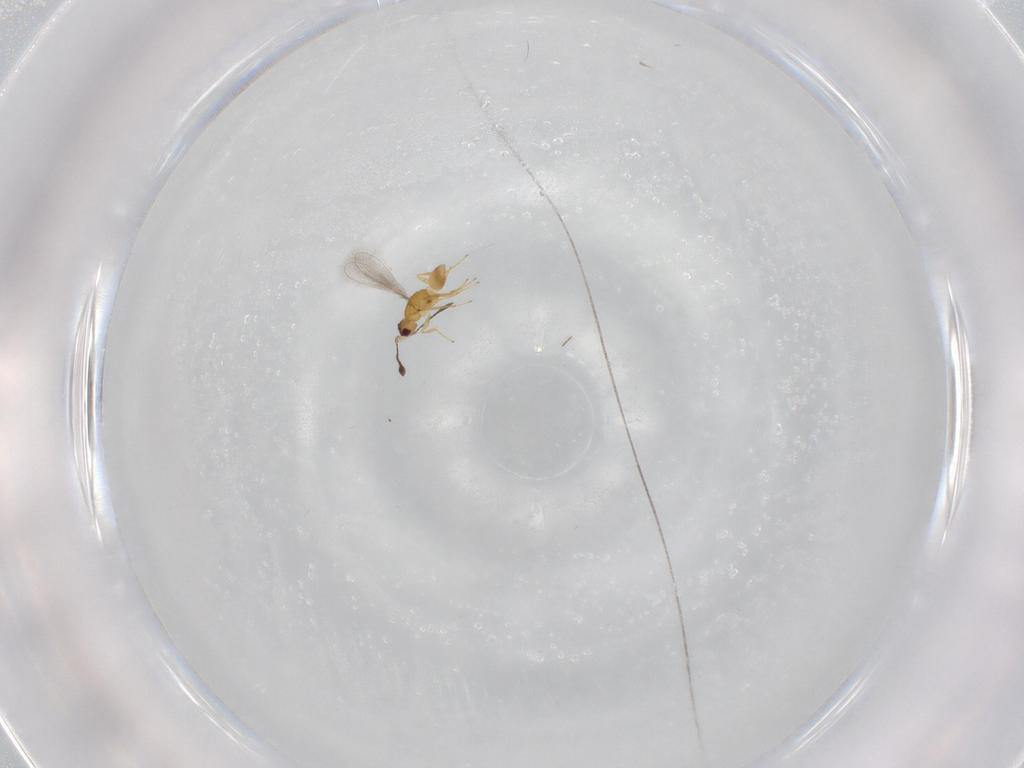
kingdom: Animalia
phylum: Arthropoda
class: Insecta
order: Hymenoptera
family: Mymaridae
